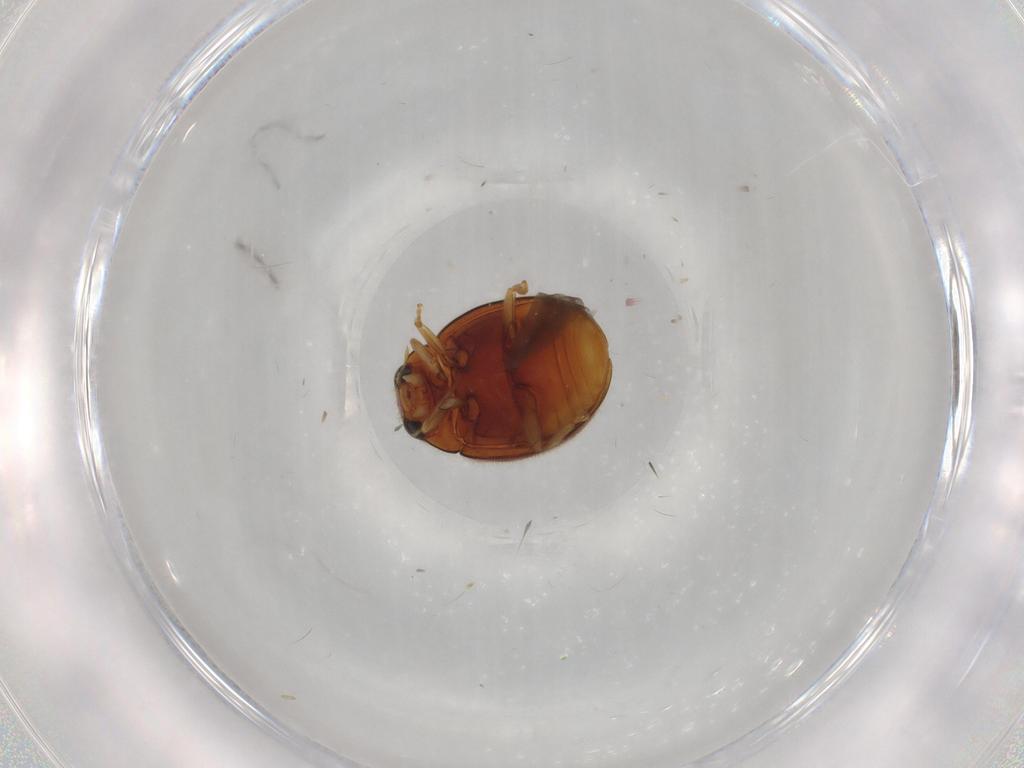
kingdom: Animalia
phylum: Arthropoda
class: Insecta
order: Coleoptera
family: Coccinellidae
